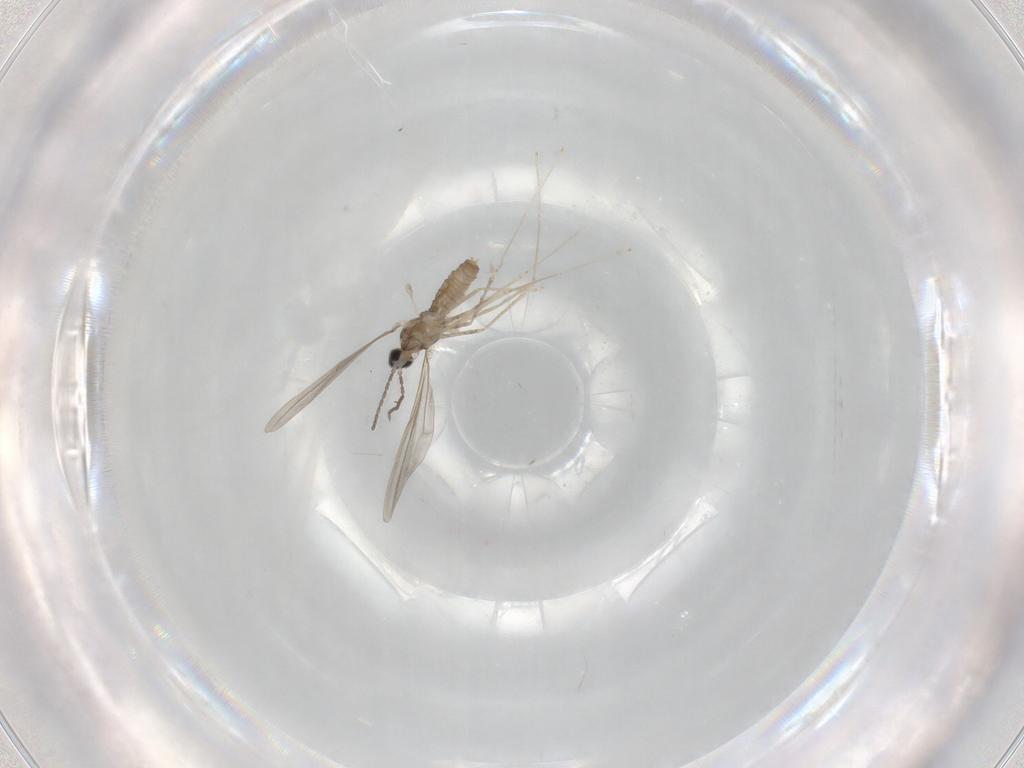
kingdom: Animalia
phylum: Arthropoda
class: Insecta
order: Diptera
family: Cecidomyiidae
